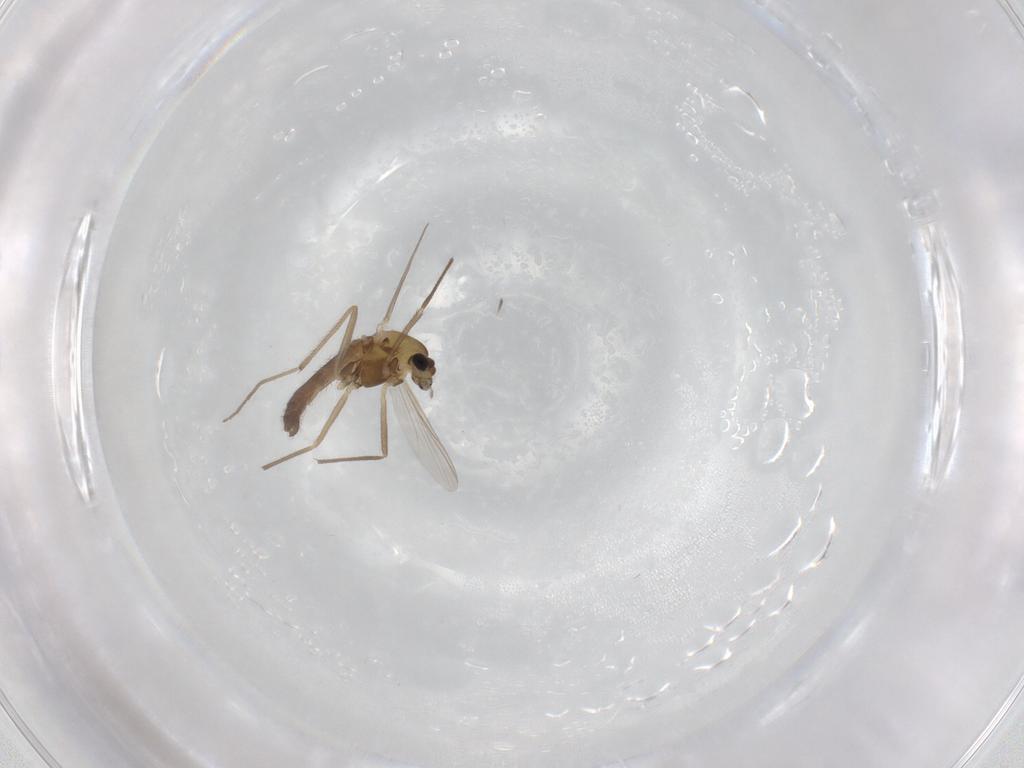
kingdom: Animalia
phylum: Arthropoda
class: Insecta
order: Diptera
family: Chironomidae
